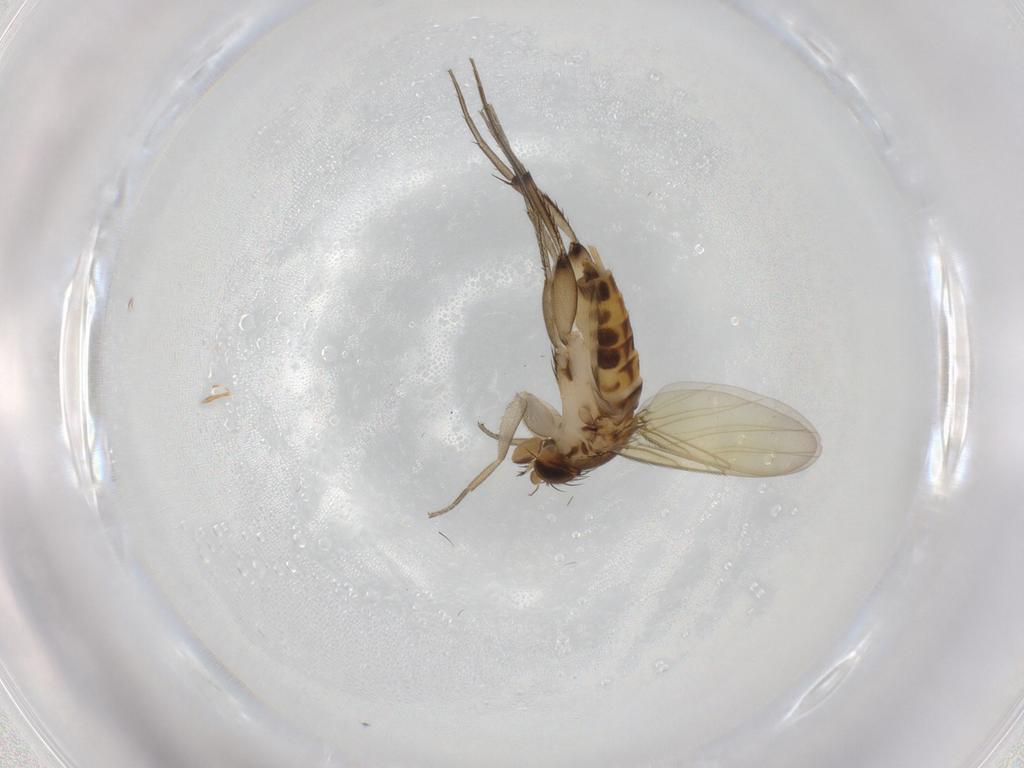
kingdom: Animalia
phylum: Arthropoda
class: Insecta
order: Diptera
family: Phoridae
